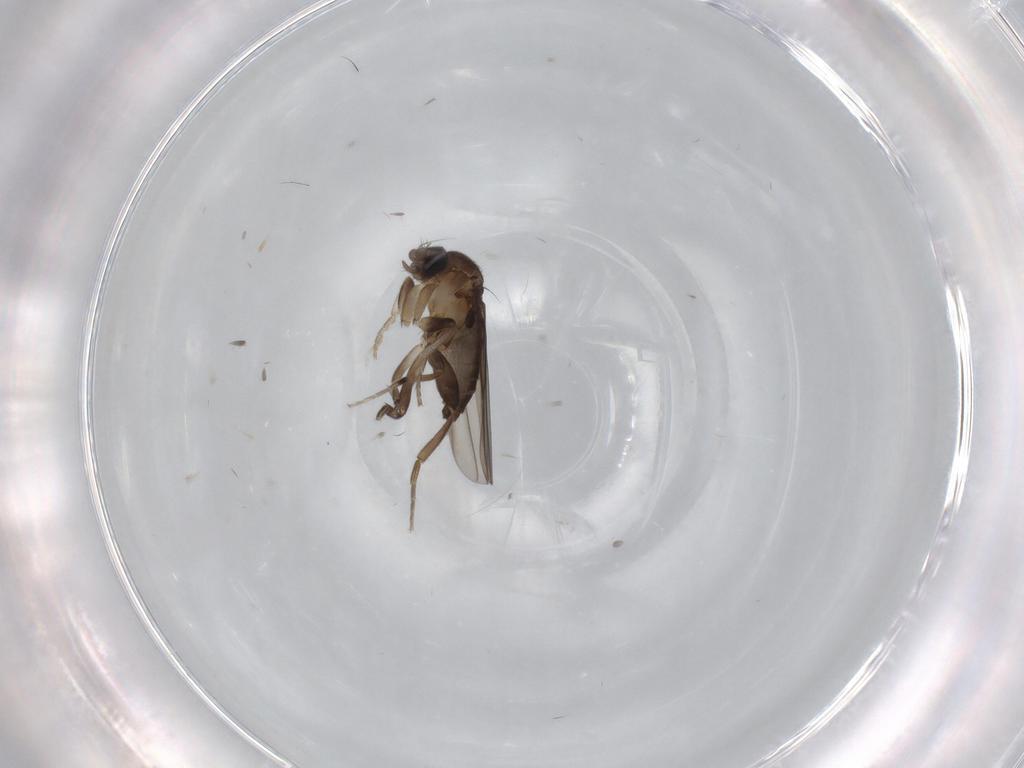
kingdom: Animalia
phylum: Arthropoda
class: Insecta
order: Diptera
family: Phoridae
